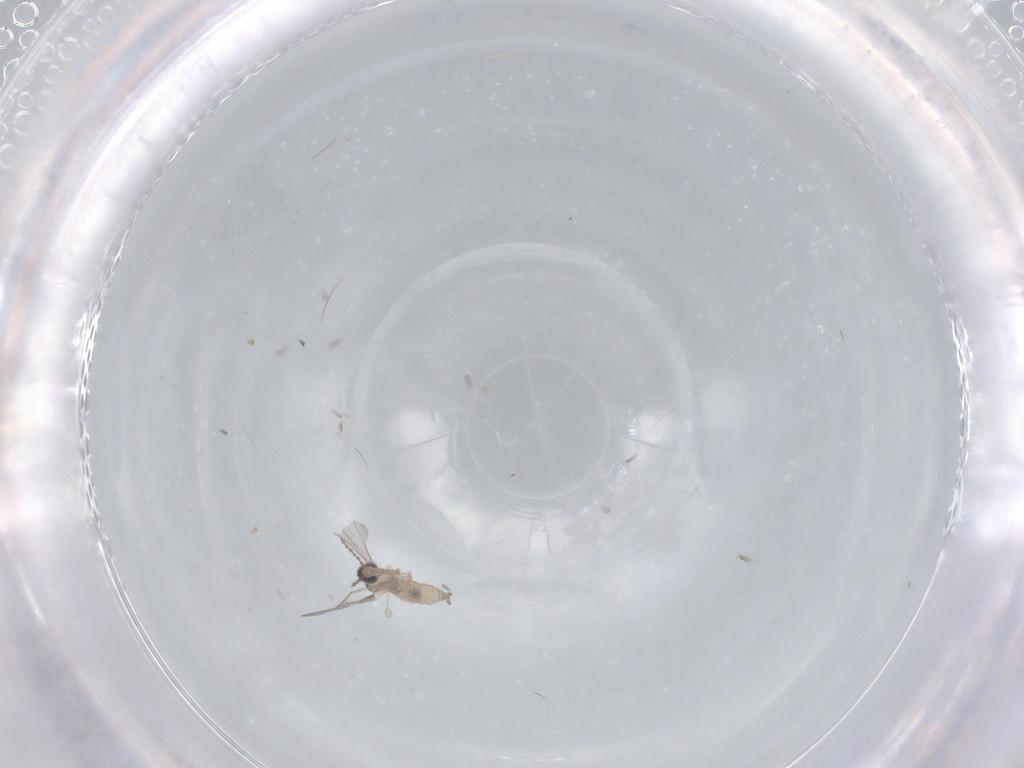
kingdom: Animalia
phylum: Arthropoda
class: Insecta
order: Diptera
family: Cecidomyiidae
